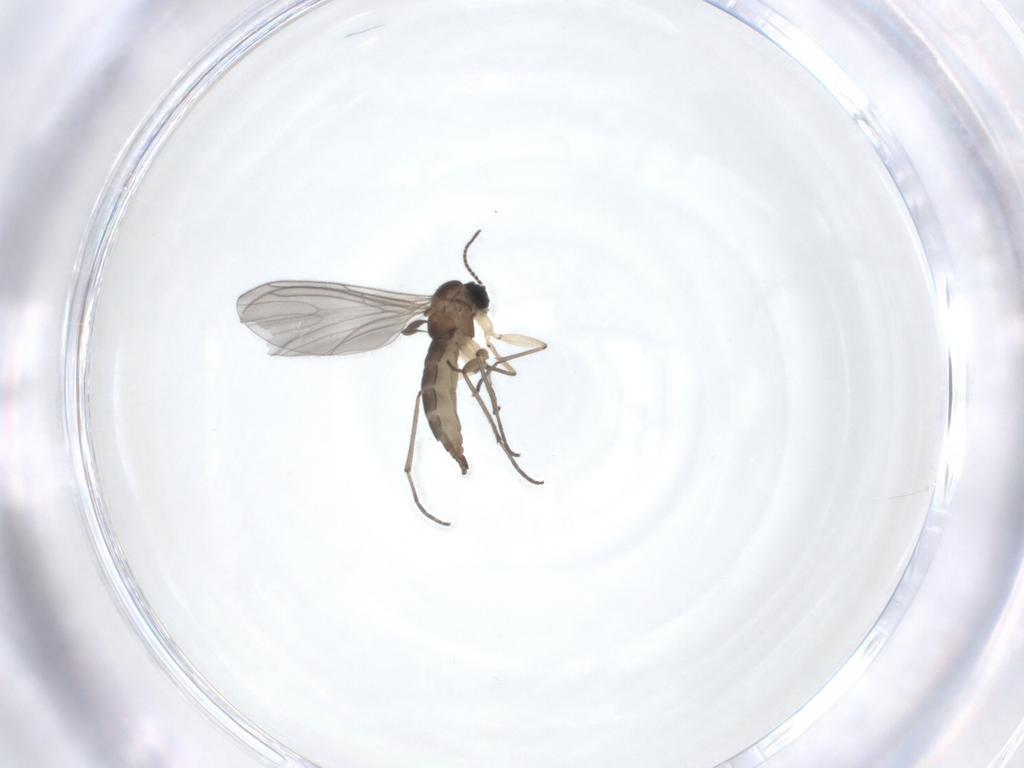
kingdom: Animalia
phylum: Arthropoda
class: Insecta
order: Diptera
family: Sciaridae
